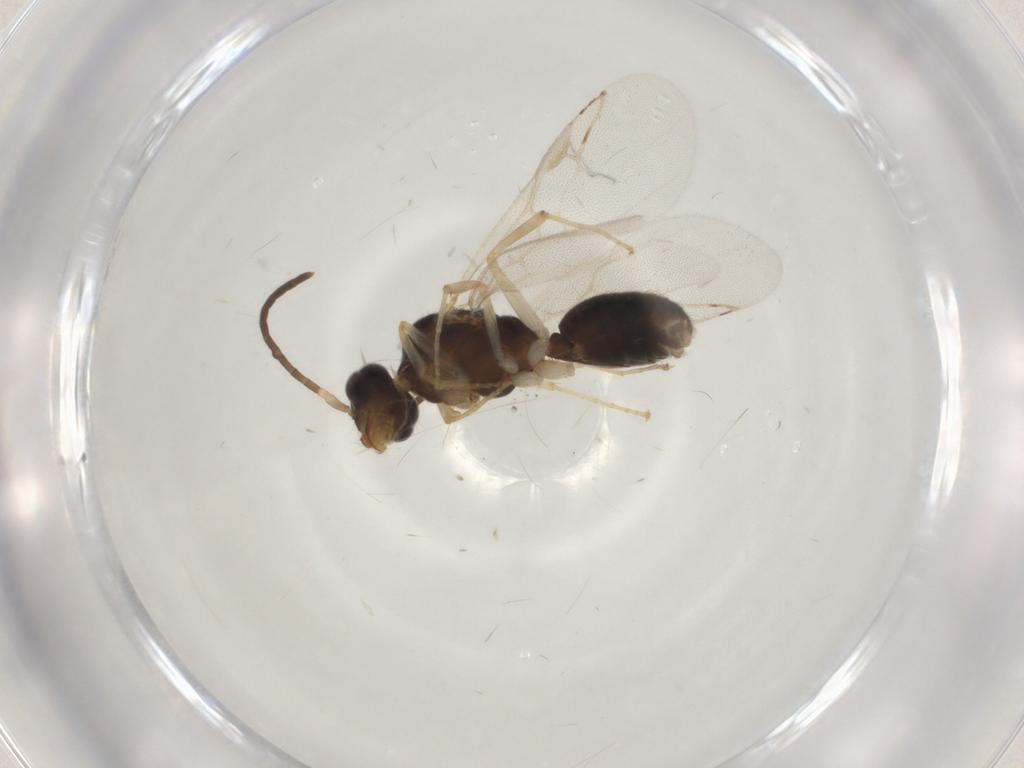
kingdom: Animalia
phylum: Arthropoda
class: Insecta
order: Hymenoptera
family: Formicidae
